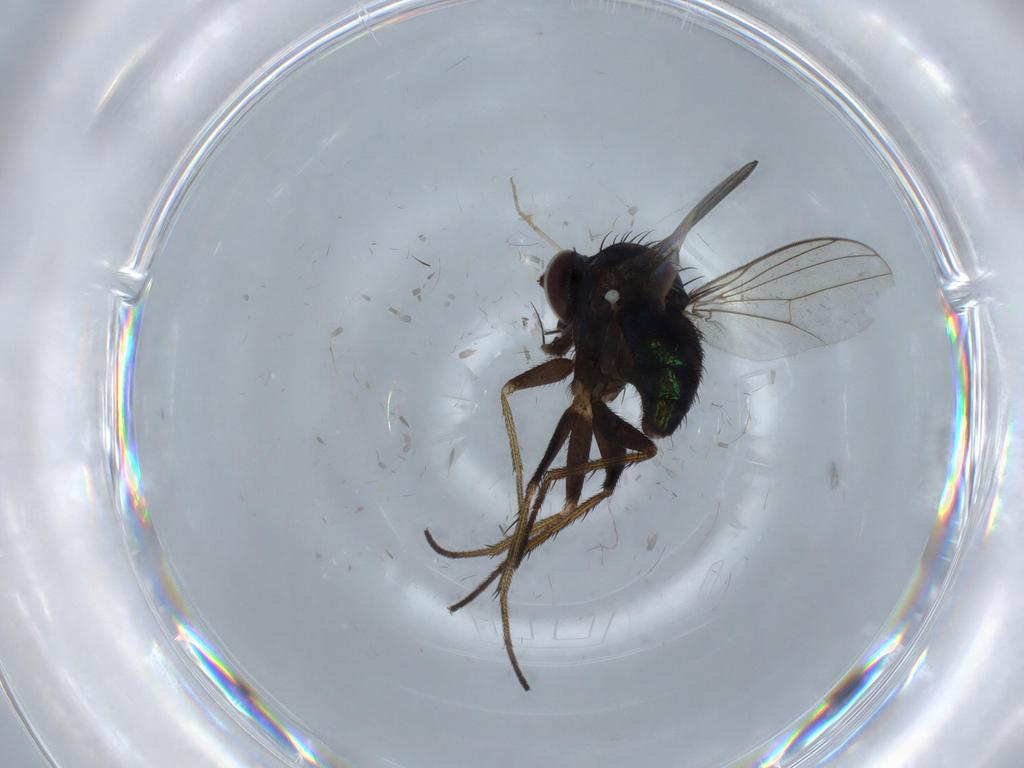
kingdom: Animalia
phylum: Arthropoda
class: Insecta
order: Diptera
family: Dolichopodidae
